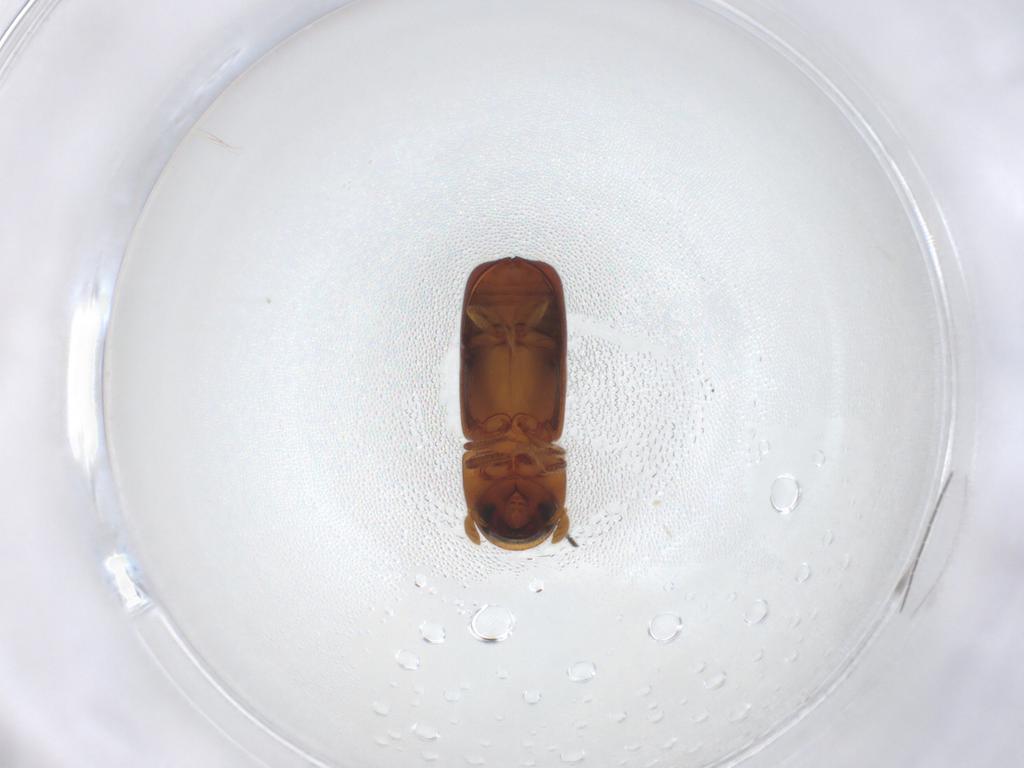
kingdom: Animalia
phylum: Arthropoda
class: Insecta
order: Coleoptera
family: Curculionidae
